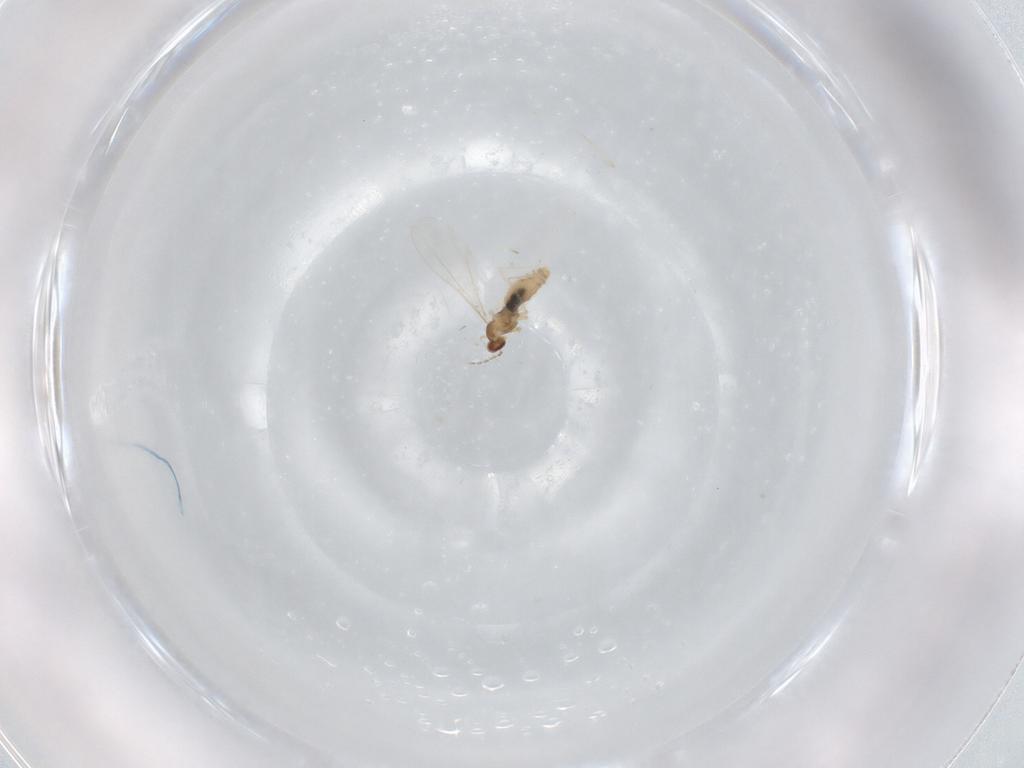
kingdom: Animalia
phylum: Arthropoda
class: Insecta
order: Diptera
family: Cecidomyiidae
